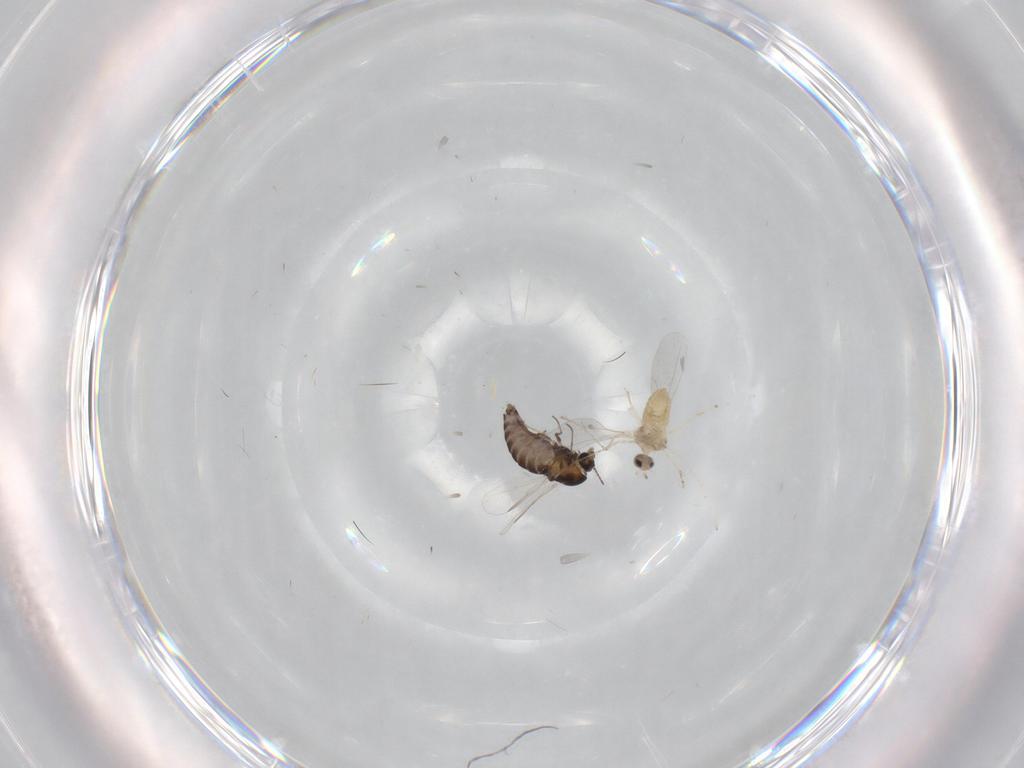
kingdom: Animalia
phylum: Arthropoda
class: Insecta
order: Diptera
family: Chironomidae
